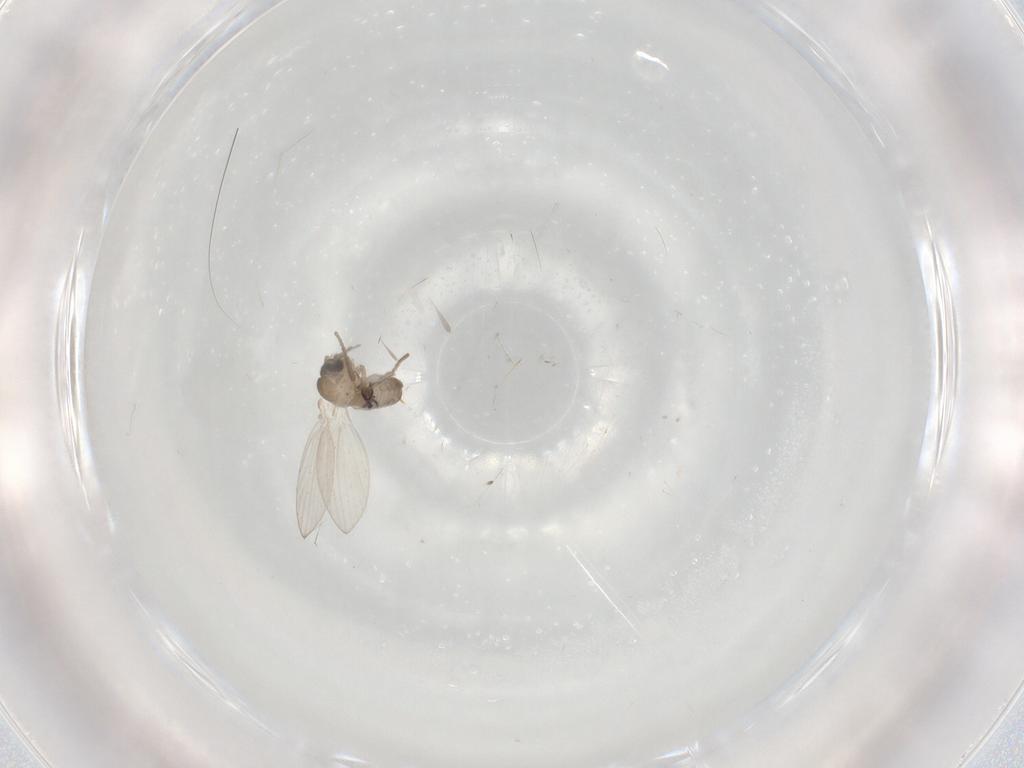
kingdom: Animalia
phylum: Arthropoda
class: Insecta
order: Diptera
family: Psychodidae
